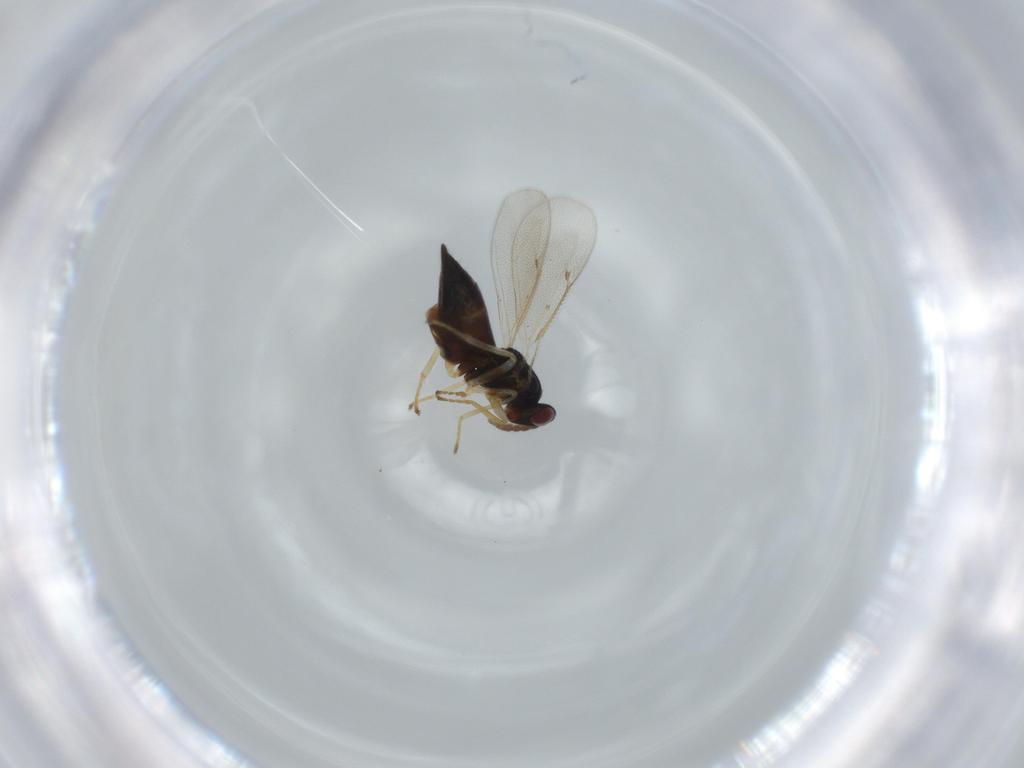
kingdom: Animalia
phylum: Arthropoda
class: Insecta
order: Hymenoptera
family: Eulophidae
